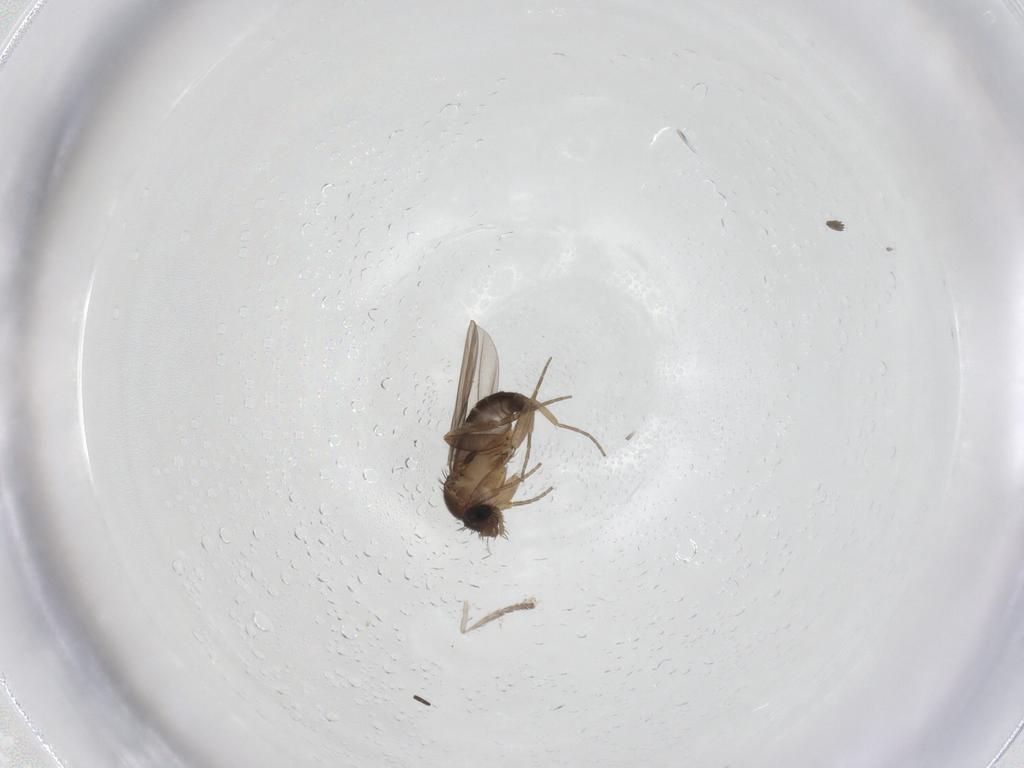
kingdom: Animalia
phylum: Arthropoda
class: Insecta
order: Diptera
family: Psychodidae
